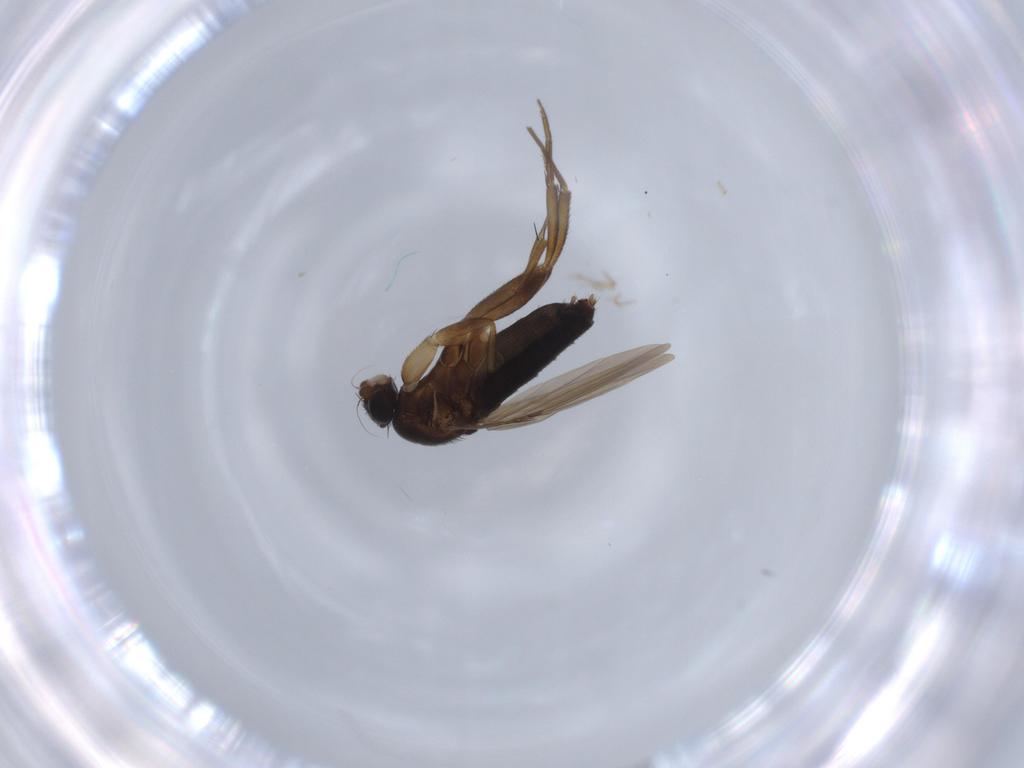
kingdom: Animalia
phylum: Arthropoda
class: Insecta
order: Diptera
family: Phoridae
